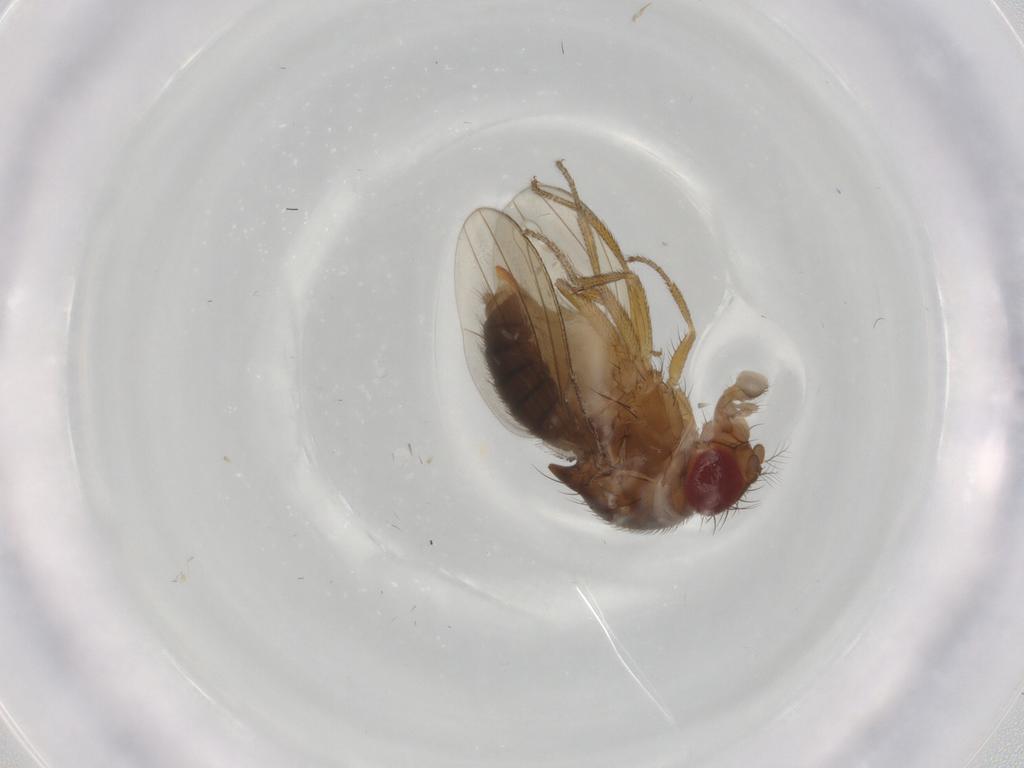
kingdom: Animalia
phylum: Arthropoda
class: Insecta
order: Diptera
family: Drosophilidae
